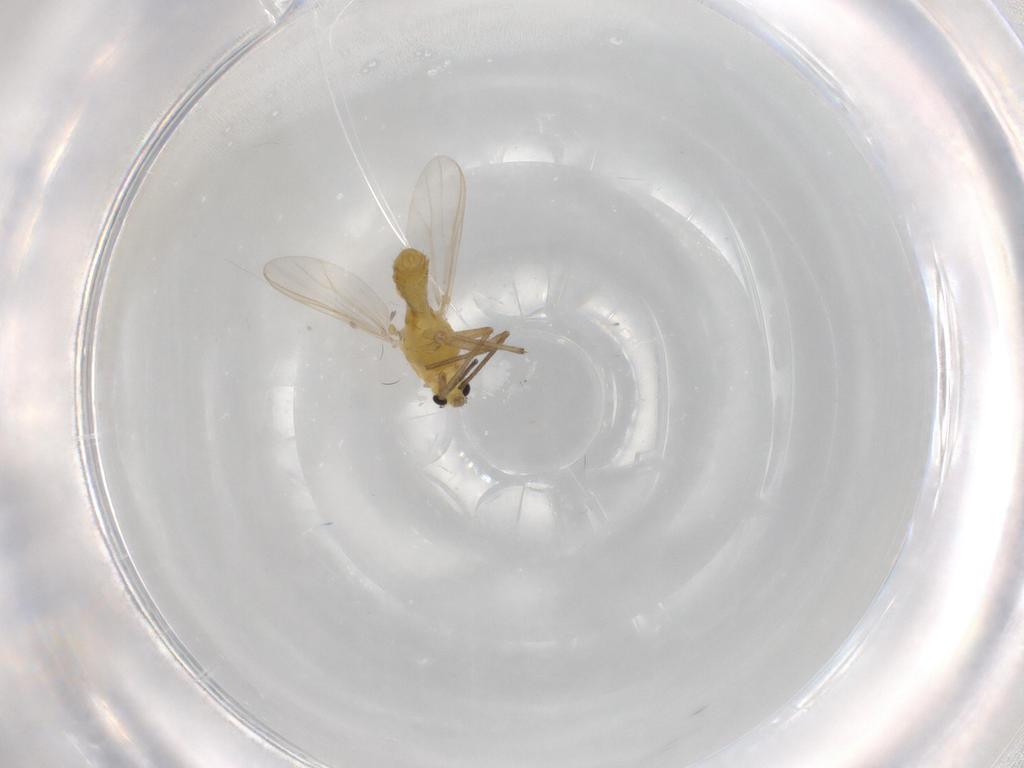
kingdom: Animalia
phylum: Arthropoda
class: Insecta
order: Diptera
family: Chironomidae
